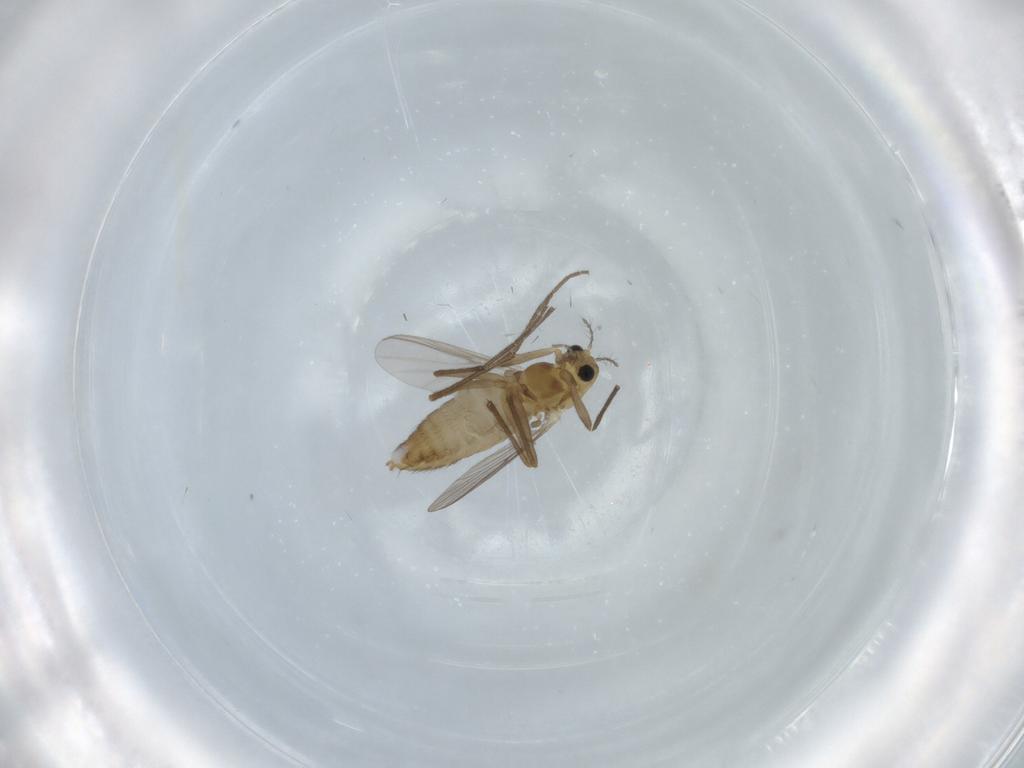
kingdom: Animalia
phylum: Arthropoda
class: Insecta
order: Diptera
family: Chironomidae
